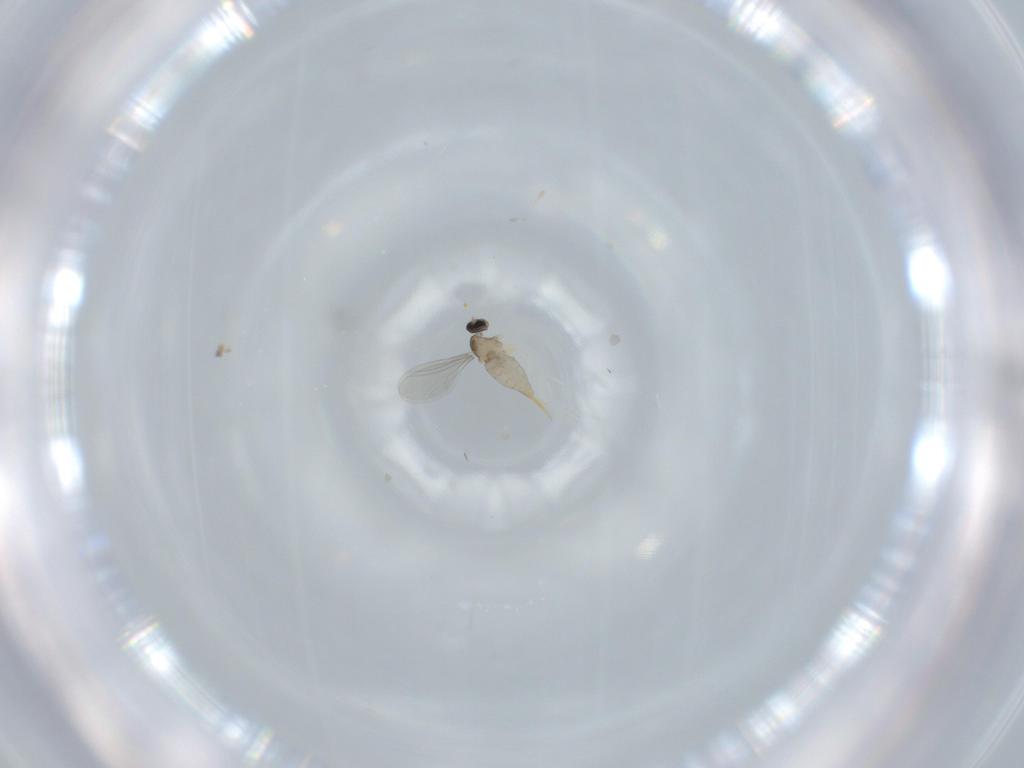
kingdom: Animalia
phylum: Arthropoda
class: Insecta
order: Diptera
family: Cecidomyiidae
